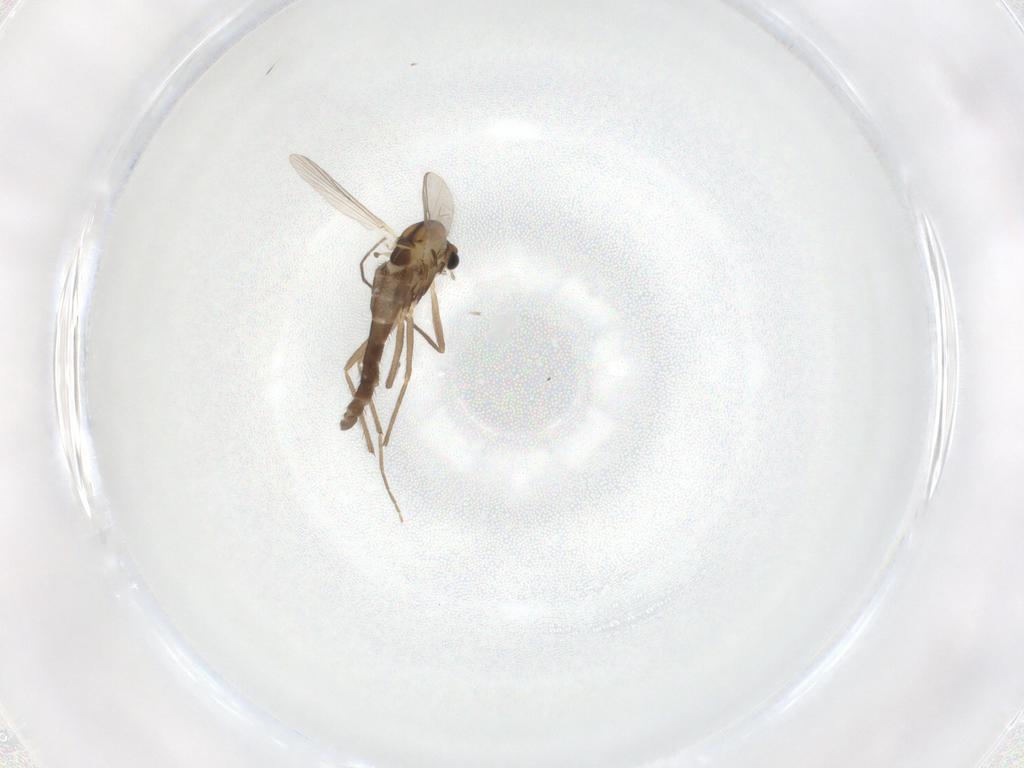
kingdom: Animalia
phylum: Arthropoda
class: Insecta
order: Diptera
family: Chironomidae
